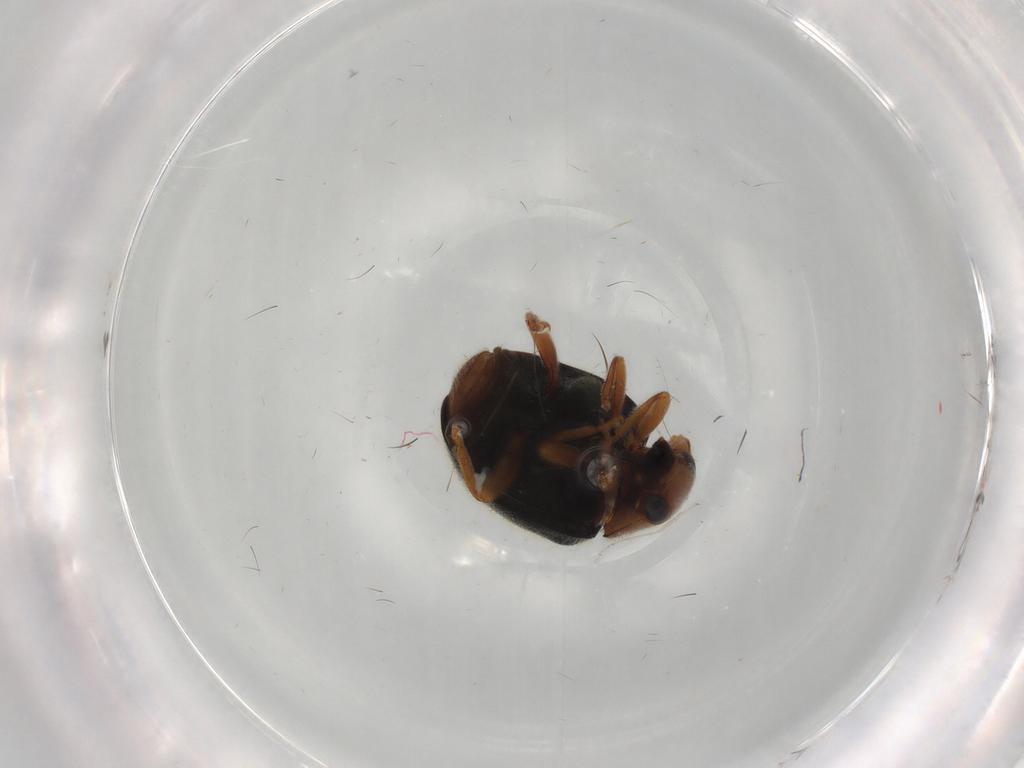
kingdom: Animalia
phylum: Arthropoda
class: Insecta
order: Coleoptera
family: Coccinellidae
